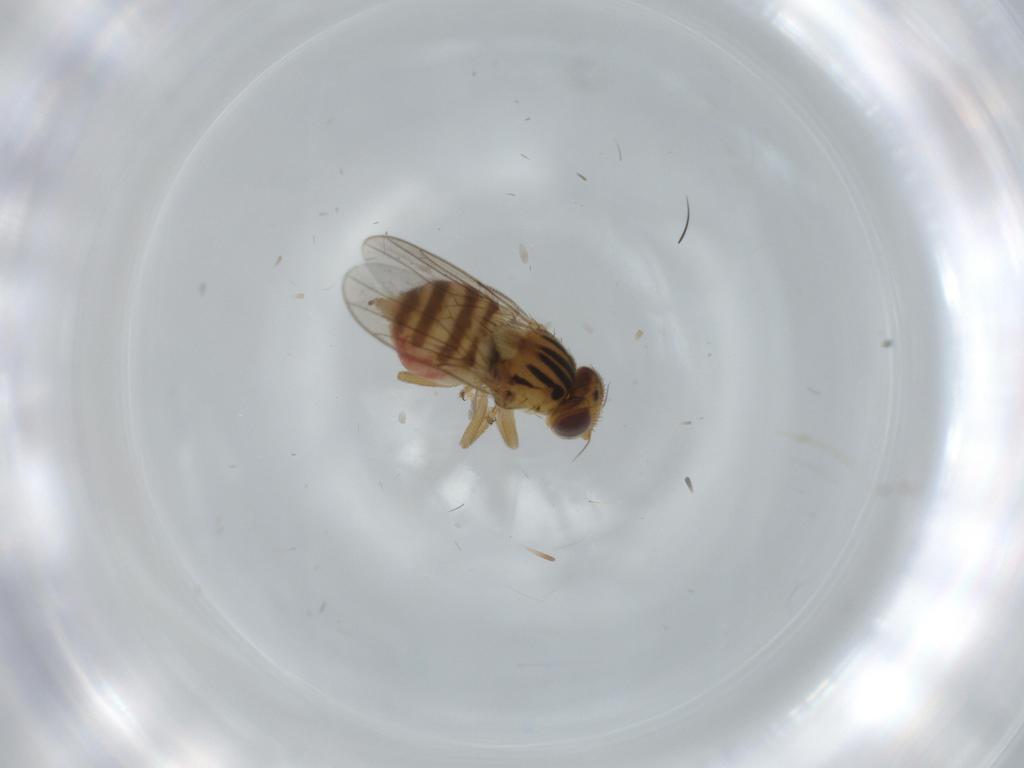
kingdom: Animalia
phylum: Arthropoda
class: Insecta
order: Diptera
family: Chloropidae
